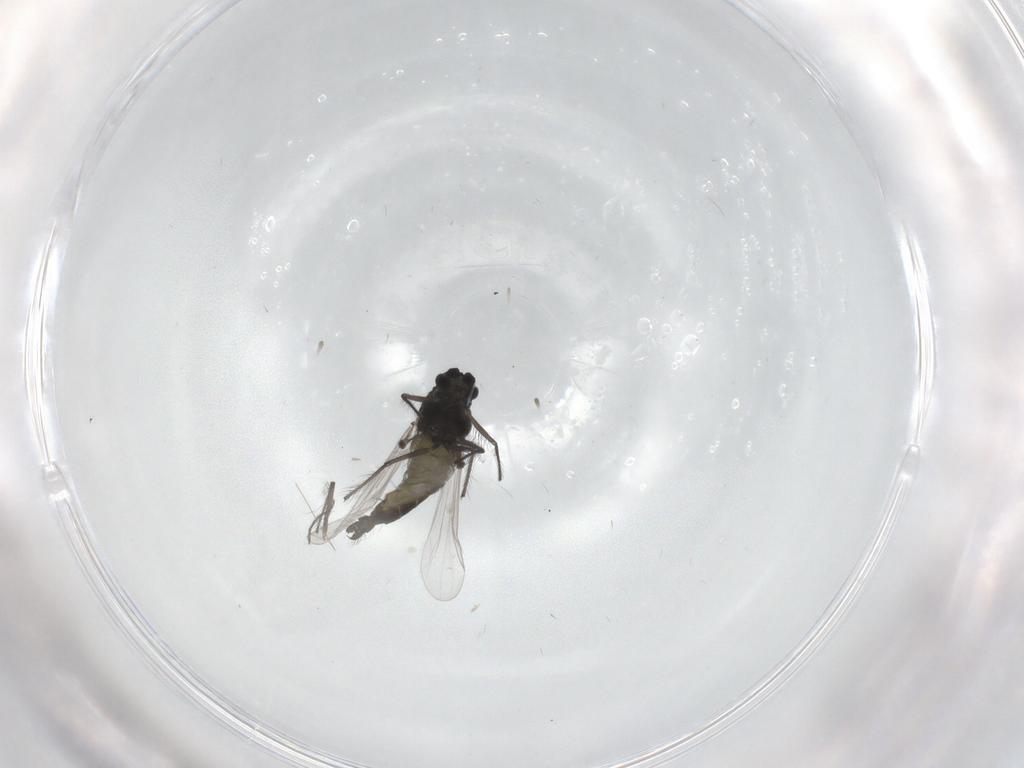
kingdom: Animalia
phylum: Arthropoda
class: Insecta
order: Diptera
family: Chironomidae
